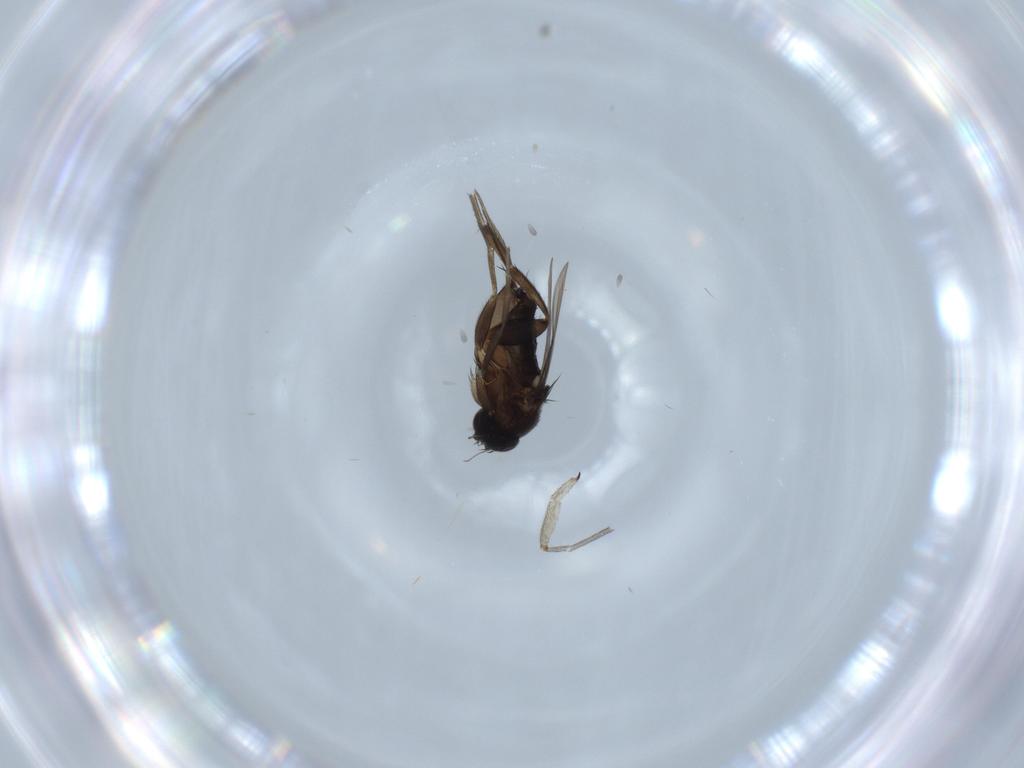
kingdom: Animalia
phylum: Arthropoda
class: Insecta
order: Diptera
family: Phoridae
